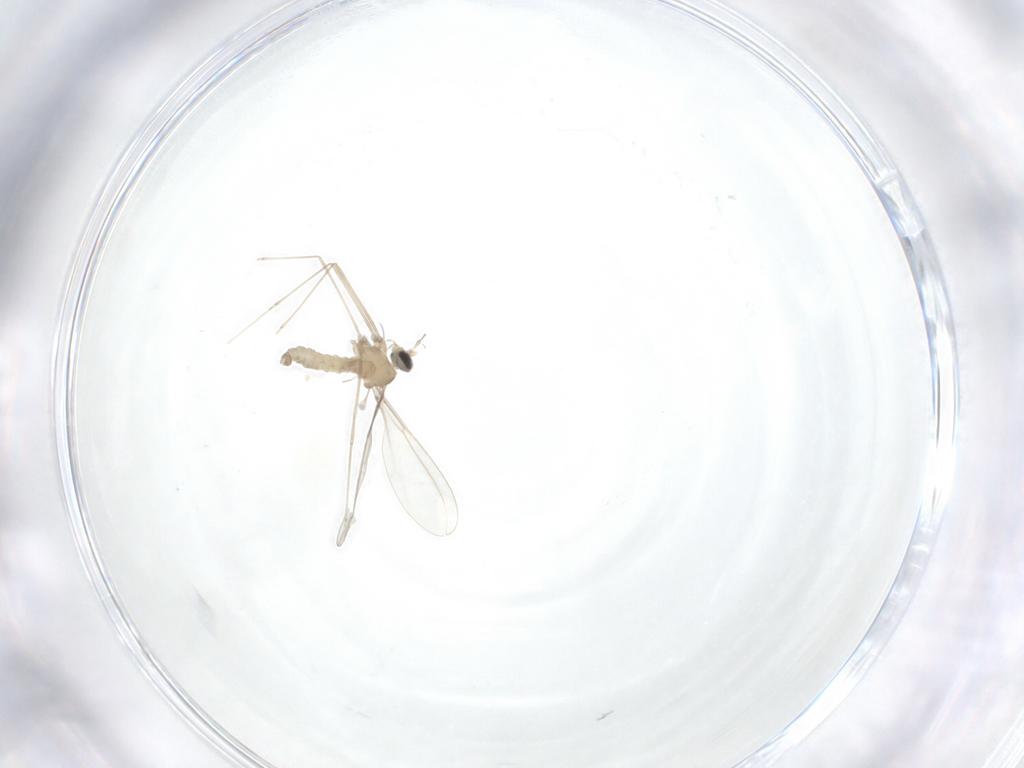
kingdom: Animalia
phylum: Arthropoda
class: Insecta
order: Diptera
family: Cecidomyiidae
